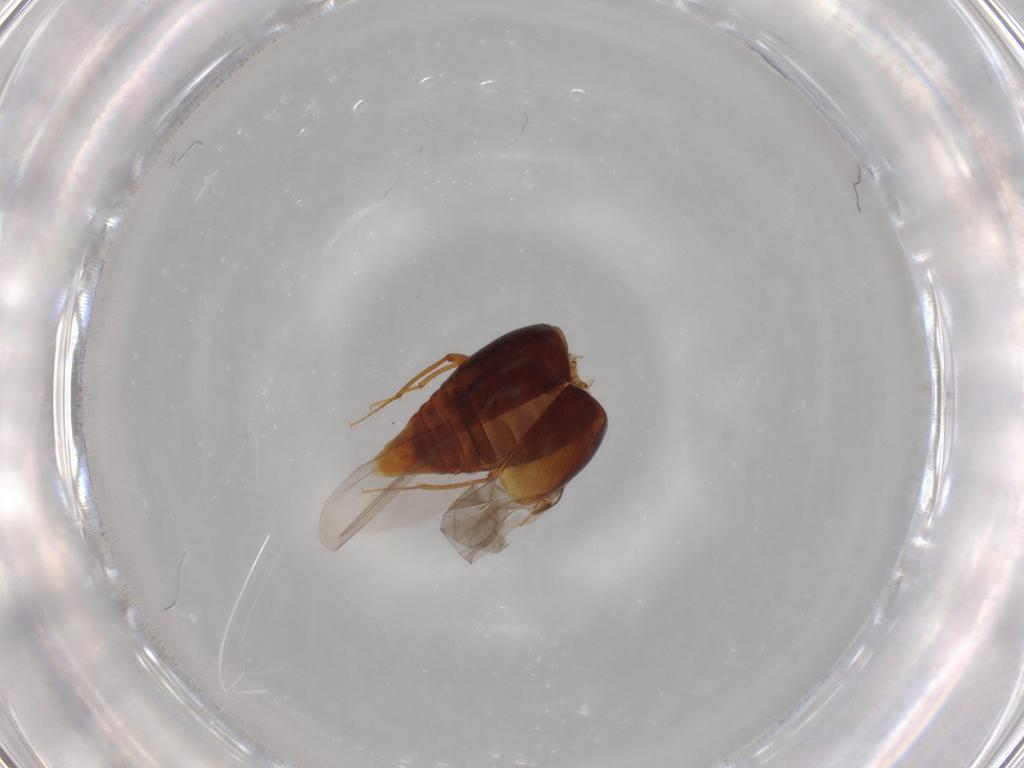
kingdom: Animalia
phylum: Arthropoda
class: Insecta
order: Coleoptera
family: Staphylinidae
